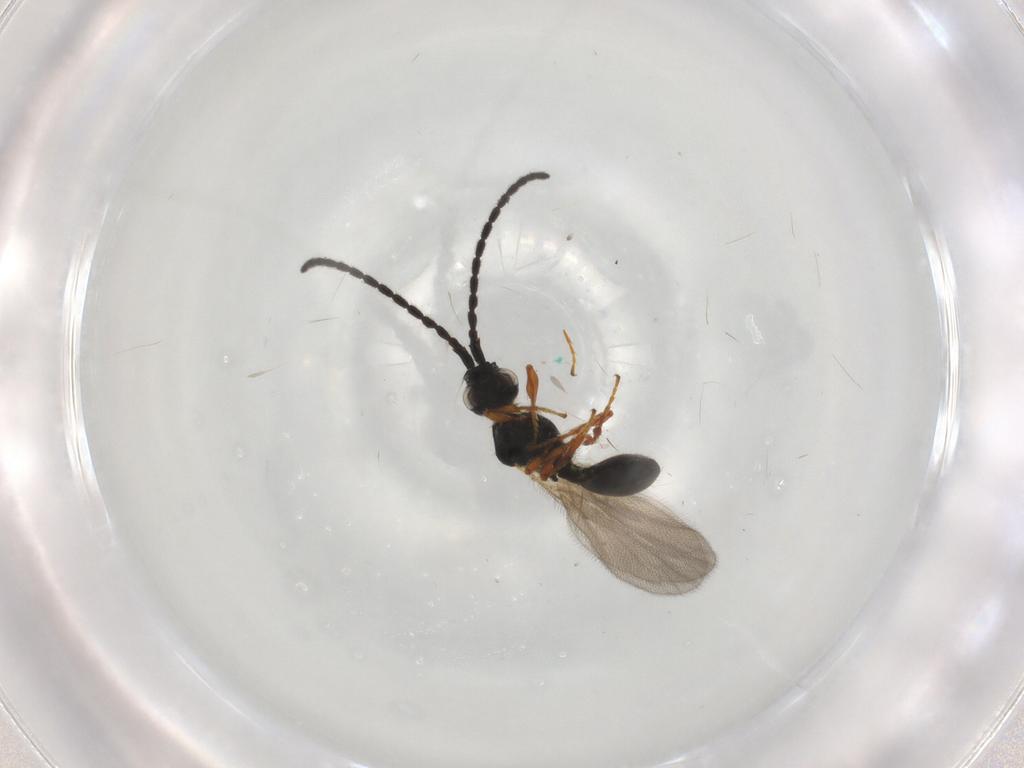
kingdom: Animalia
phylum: Arthropoda
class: Insecta
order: Hymenoptera
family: Diapriidae
